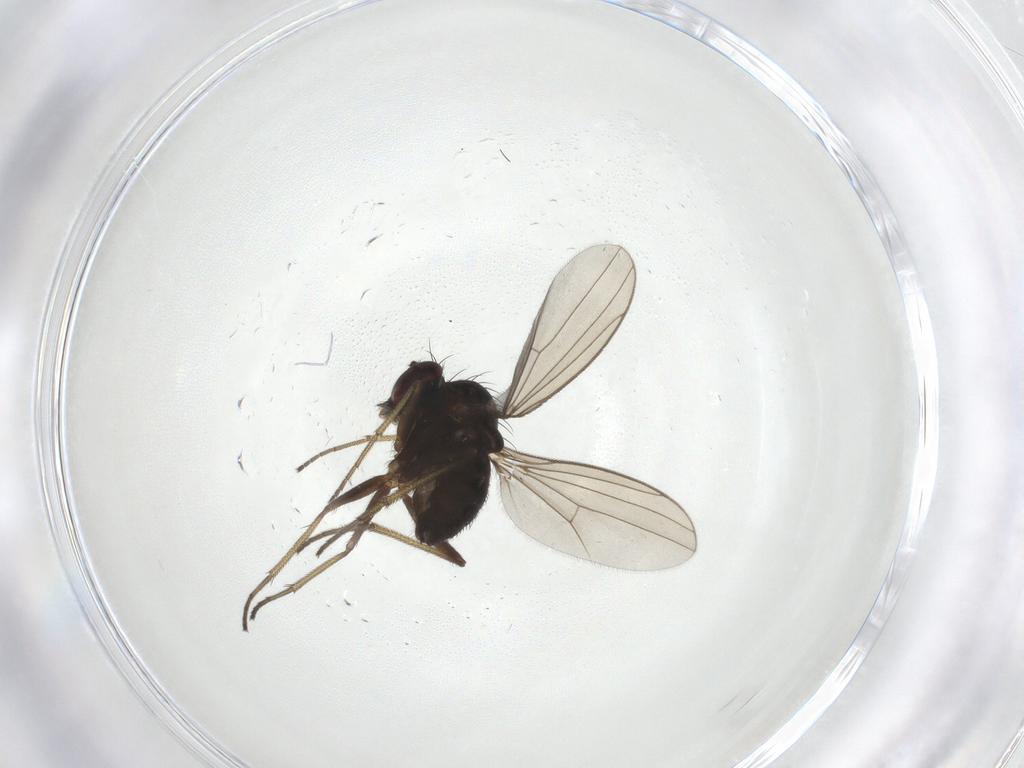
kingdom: Animalia
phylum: Arthropoda
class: Insecta
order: Diptera
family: Dolichopodidae
